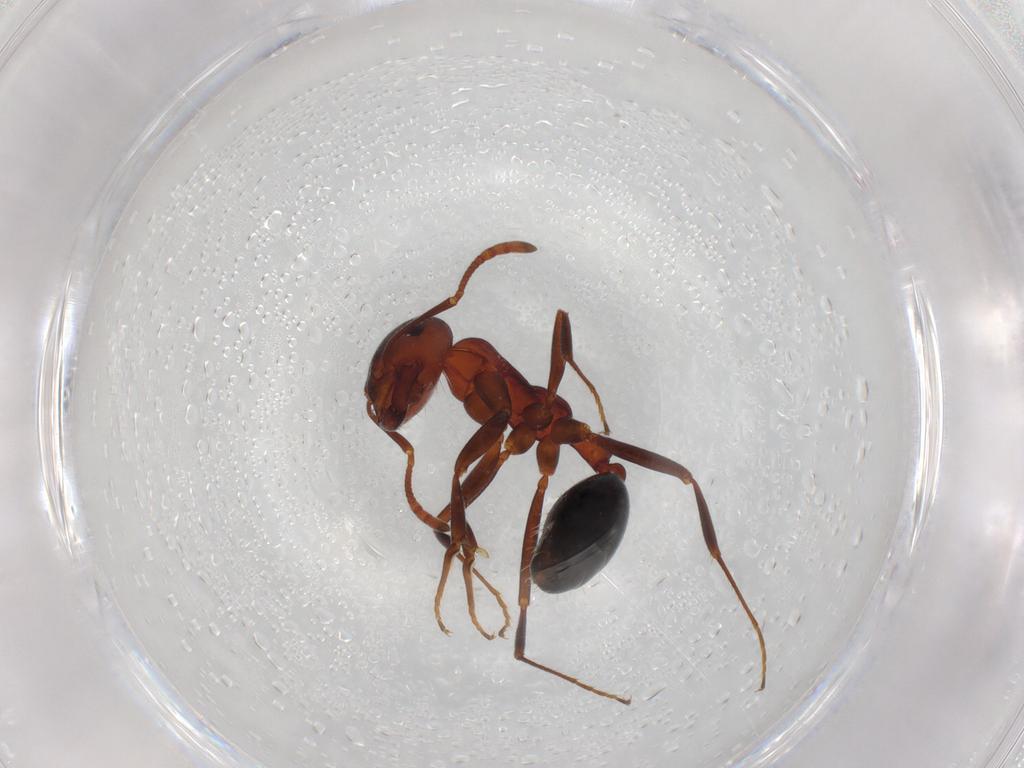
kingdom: Animalia
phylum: Arthropoda
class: Insecta
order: Hymenoptera
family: Formicidae
